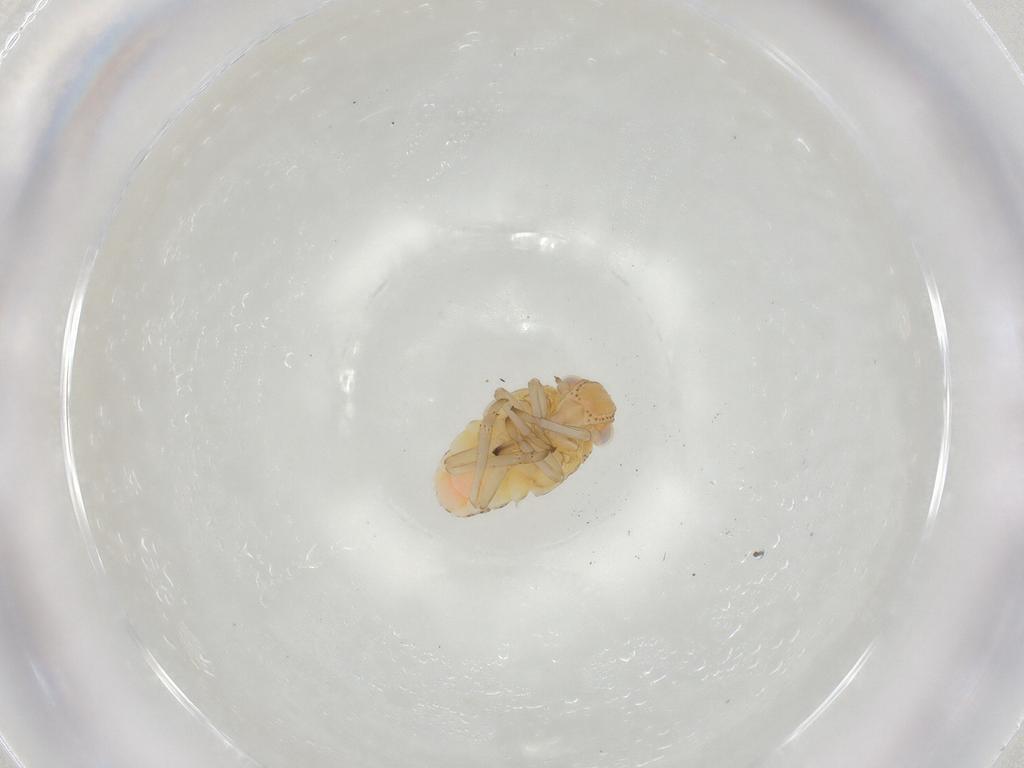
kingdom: Animalia
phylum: Arthropoda
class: Insecta
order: Hemiptera
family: Tropiduchidae
